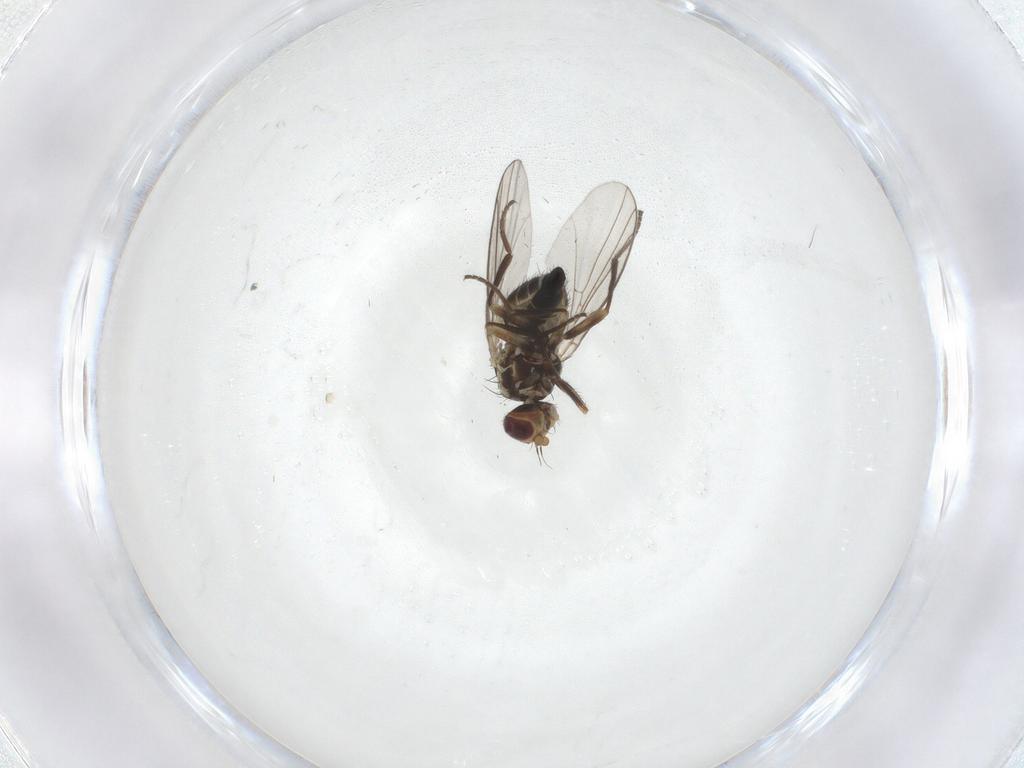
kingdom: Animalia
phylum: Arthropoda
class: Insecta
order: Diptera
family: Agromyzidae
